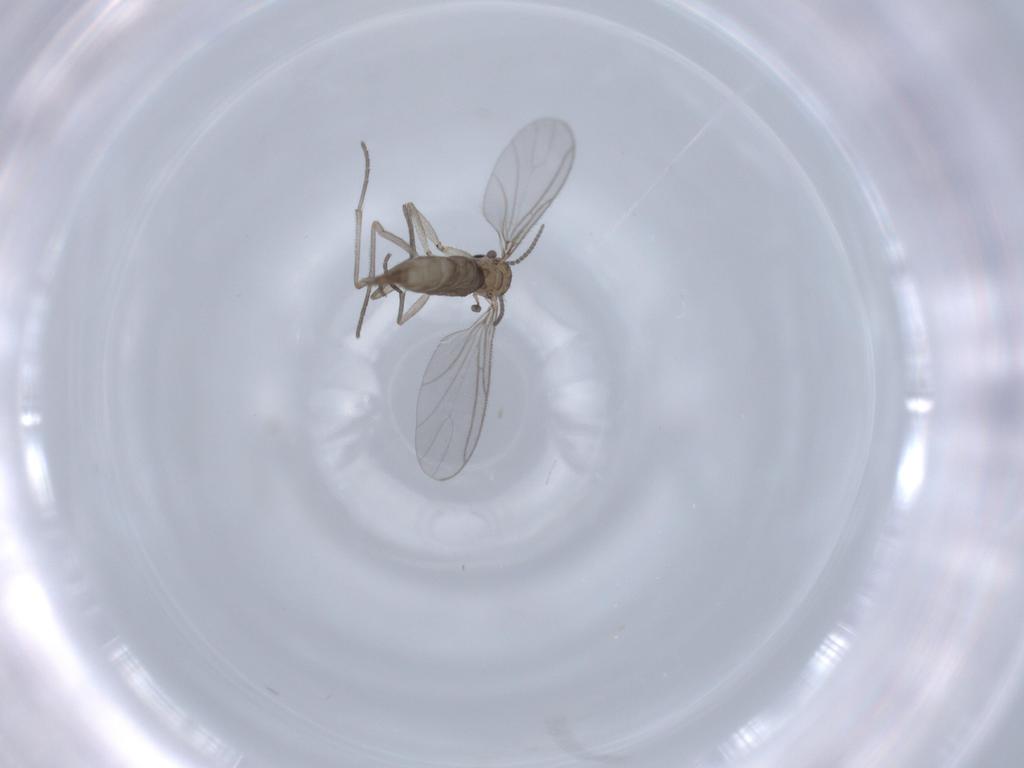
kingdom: Animalia
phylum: Arthropoda
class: Insecta
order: Diptera
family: Sciaridae
